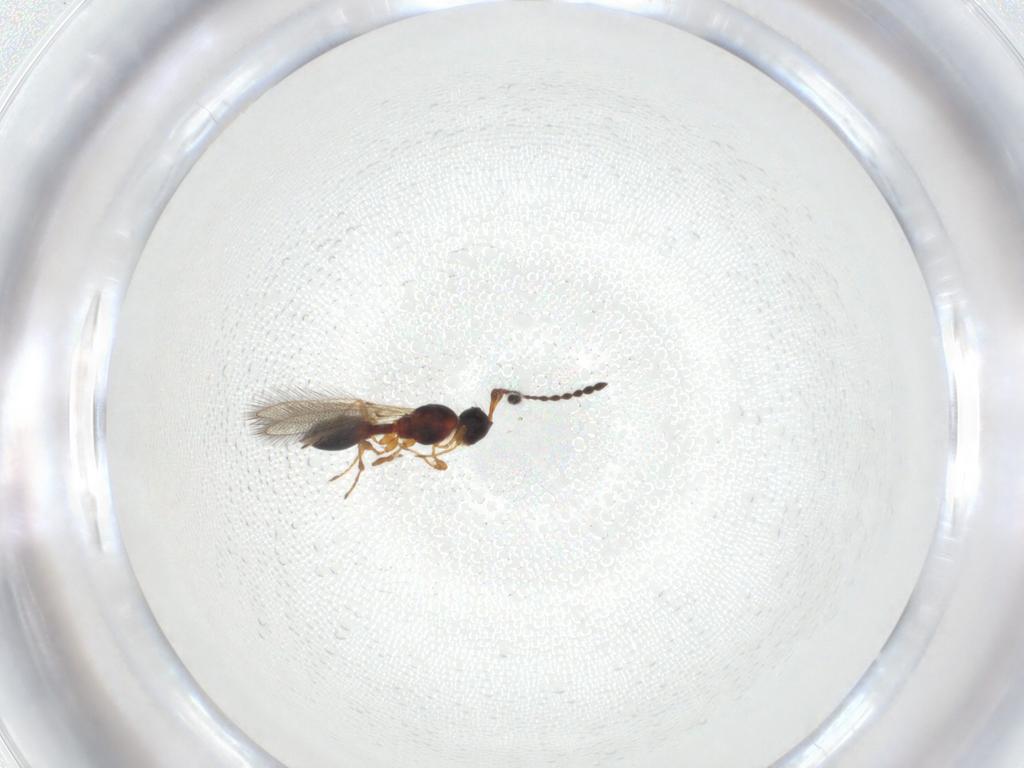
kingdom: Animalia
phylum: Arthropoda
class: Insecta
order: Hymenoptera
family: Diapriidae
